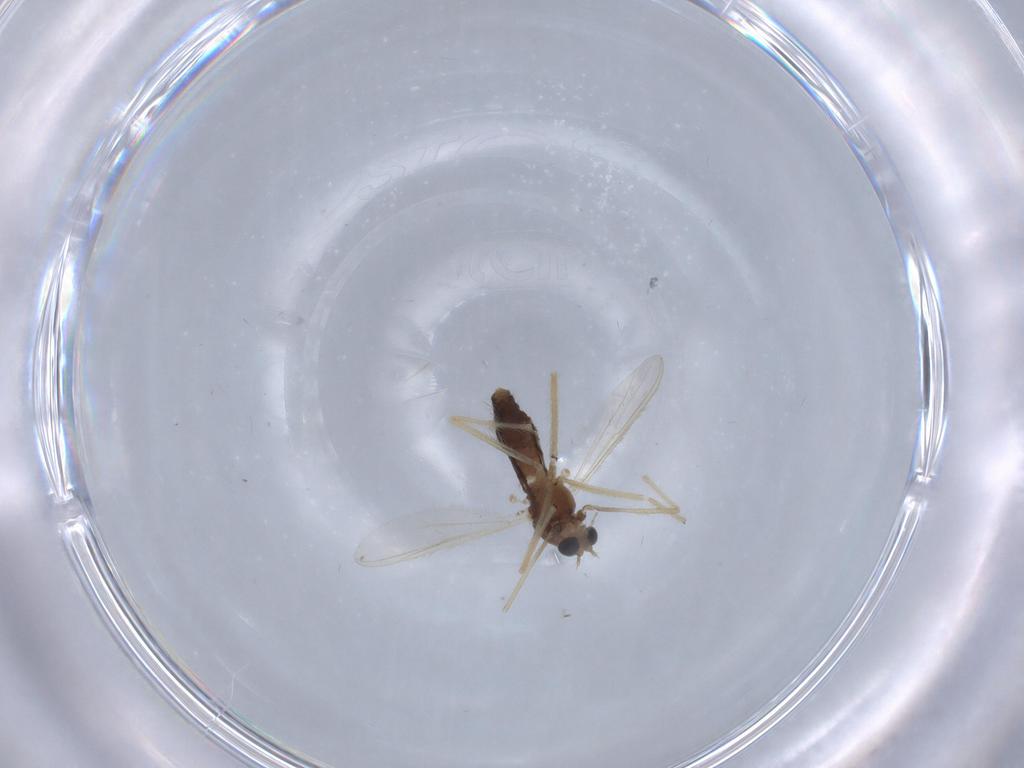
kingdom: Animalia
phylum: Arthropoda
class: Insecta
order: Diptera
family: Chironomidae
